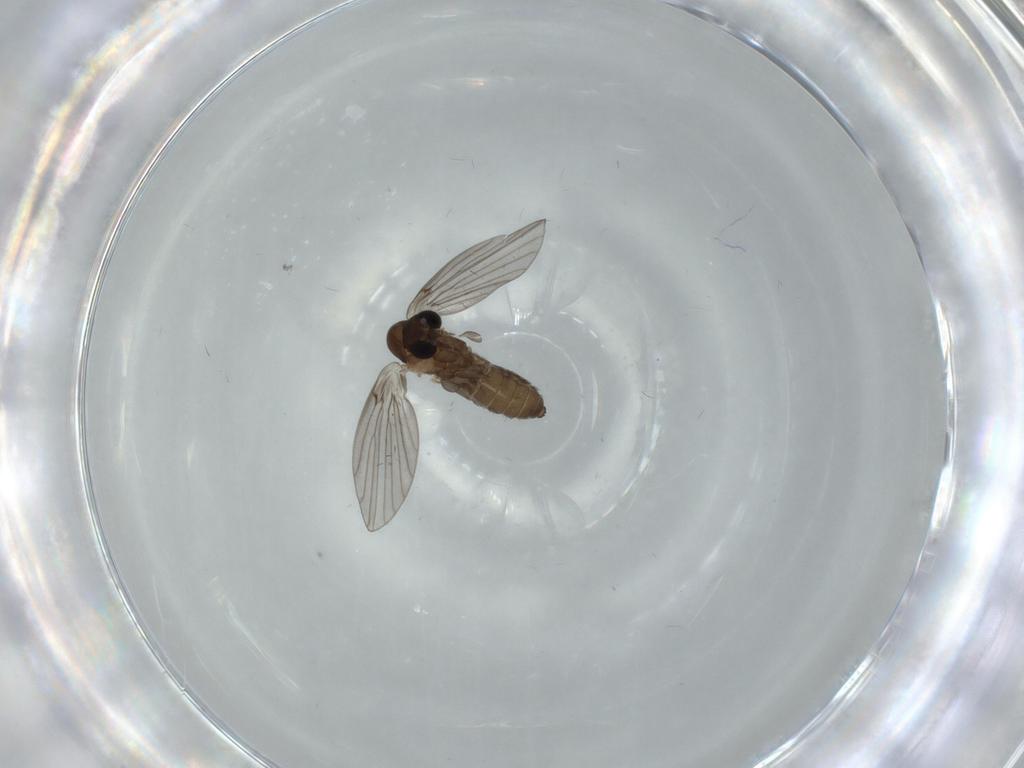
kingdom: Animalia
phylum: Arthropoda
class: Insecta
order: Diptera
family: Psychodidae
